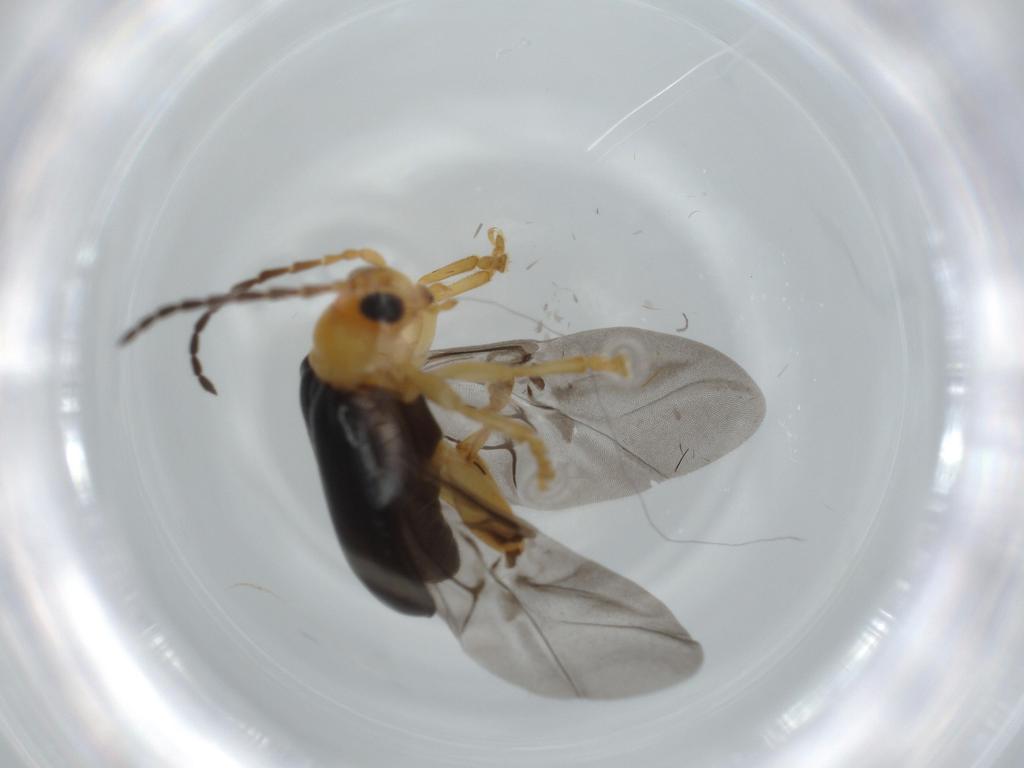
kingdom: Animalia
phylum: Arthropoda
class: Insecta
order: Coleoptera
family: Chrysomelidae
